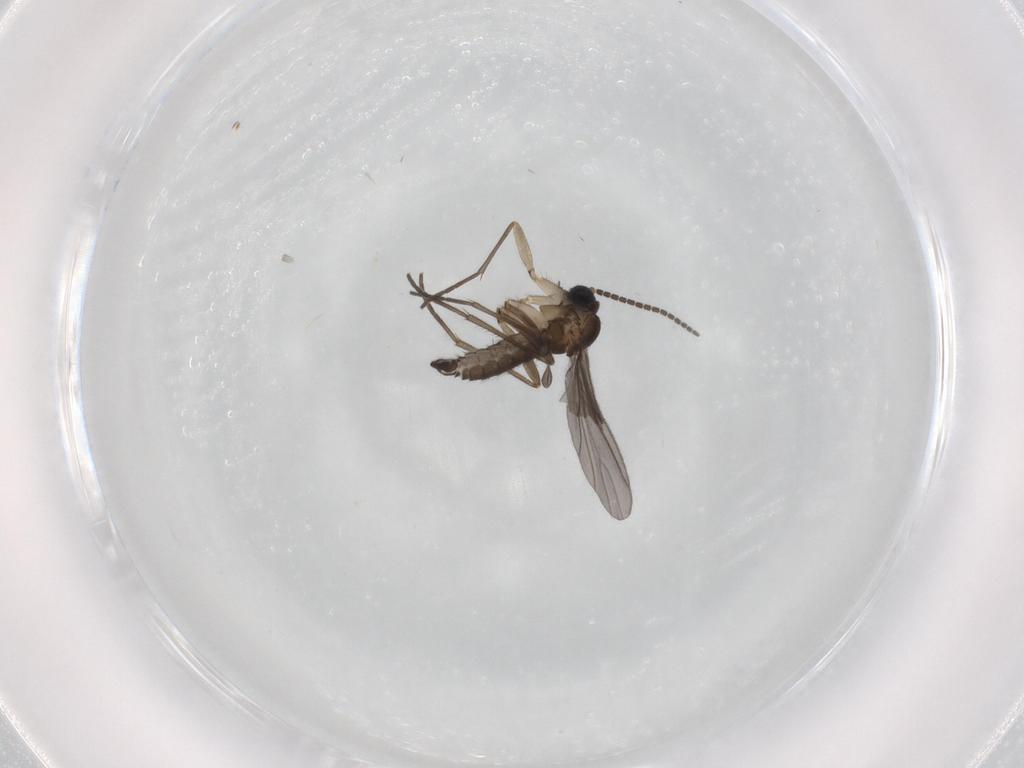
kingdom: Animalia
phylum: Arthropoda
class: Insecta
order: Diptera
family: Sciaridae
